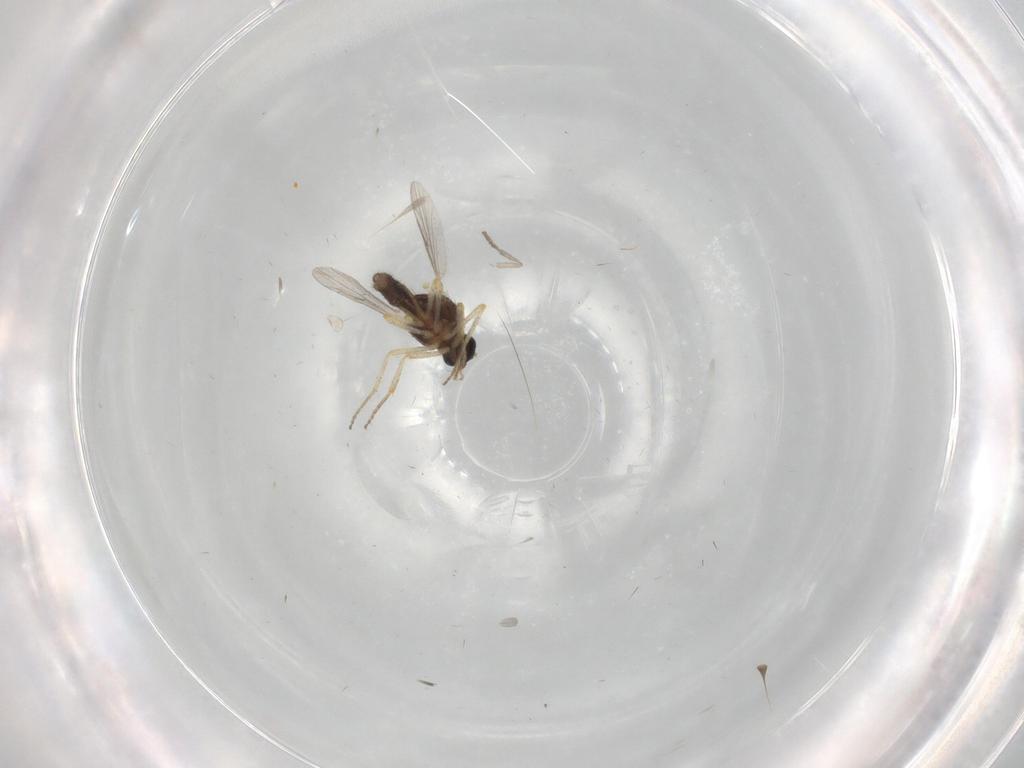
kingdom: Animalia
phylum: Arthropoda
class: Insecta
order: Diptera
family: Ceratopogonidae
